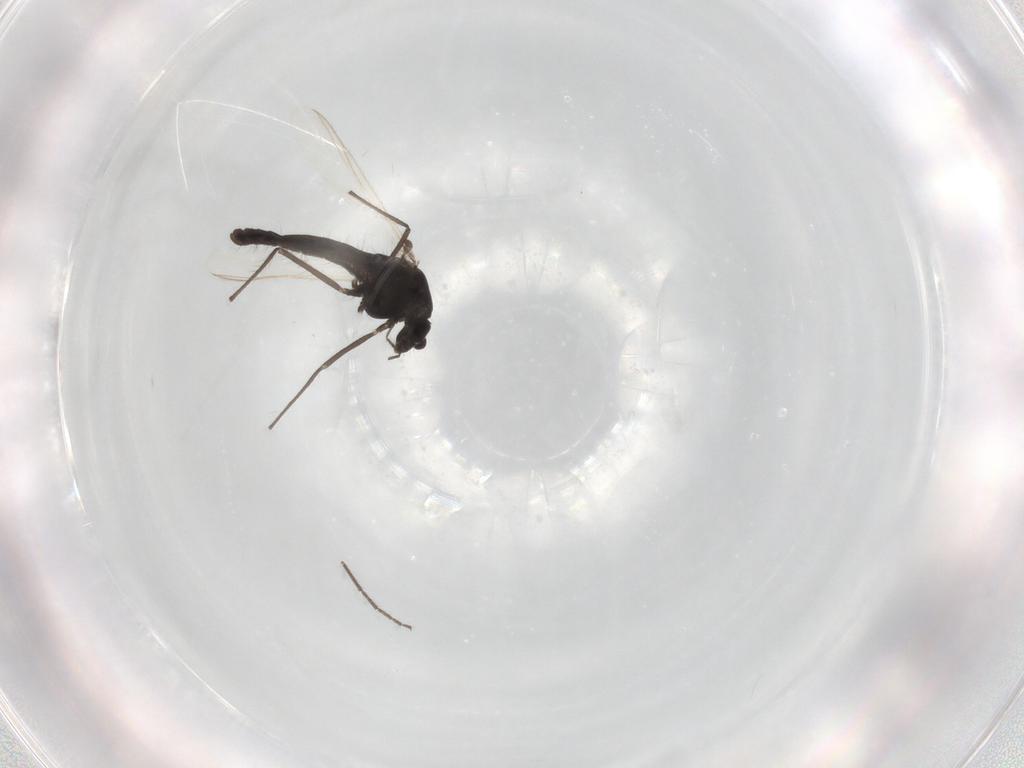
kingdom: Animalia
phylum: Arthropoda
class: Insecta
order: Diptera
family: Chironomidae
